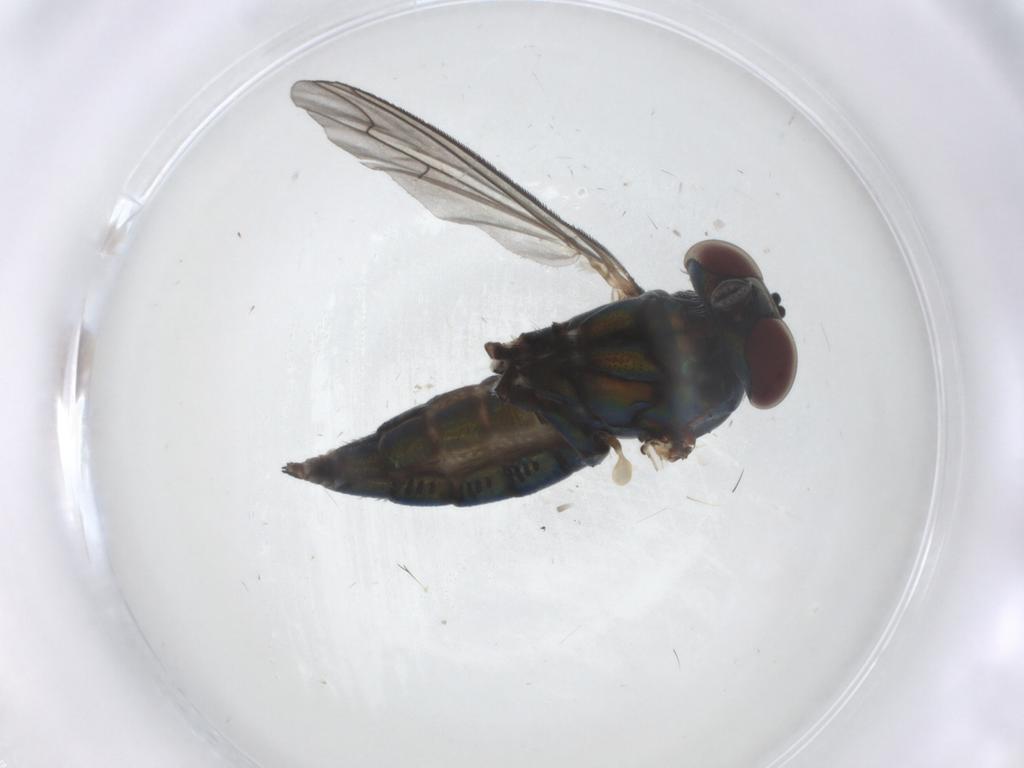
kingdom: Animalia
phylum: Arthropoda
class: Insecta
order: Diptera
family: Dolichopodidae
